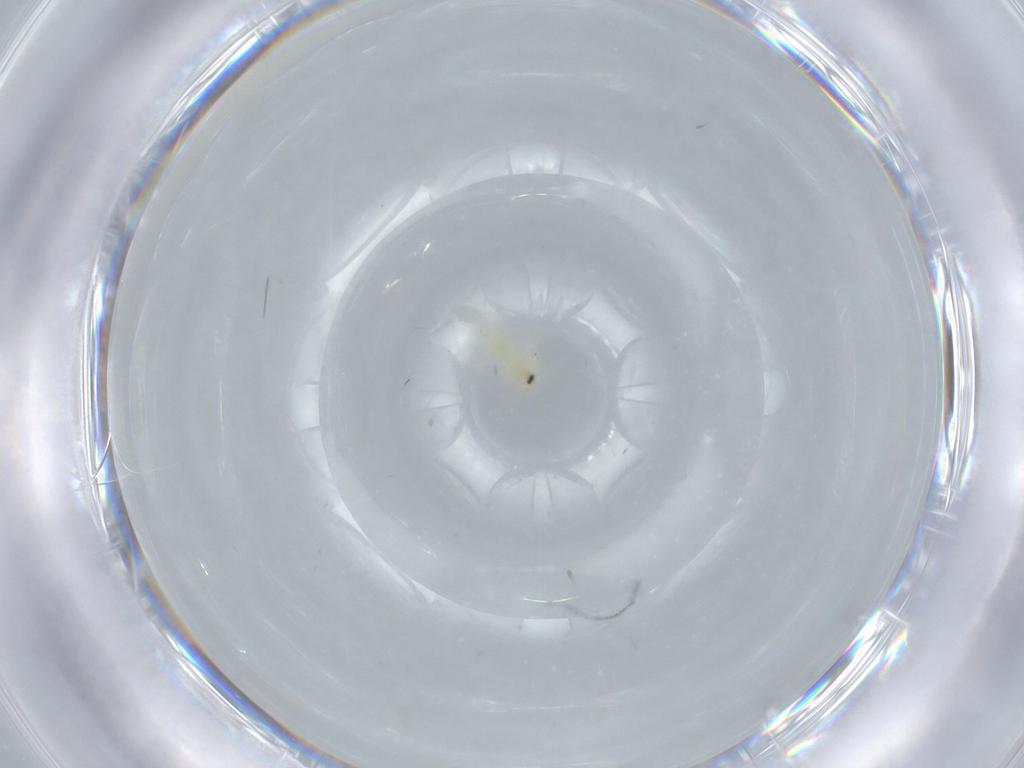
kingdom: Animalia
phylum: Arthropoda
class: Insecta
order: Hemiptera
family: Aleyrodidae
